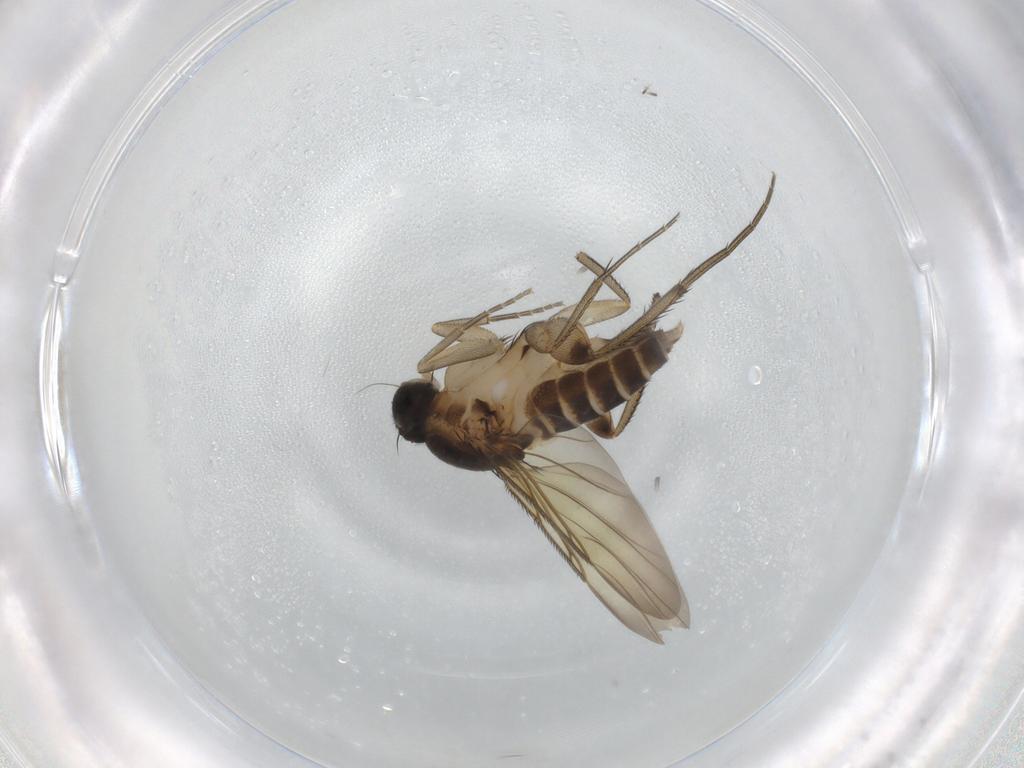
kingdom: Animalia
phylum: Arthropoda
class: Insecta
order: Diptera
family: Phoridae
